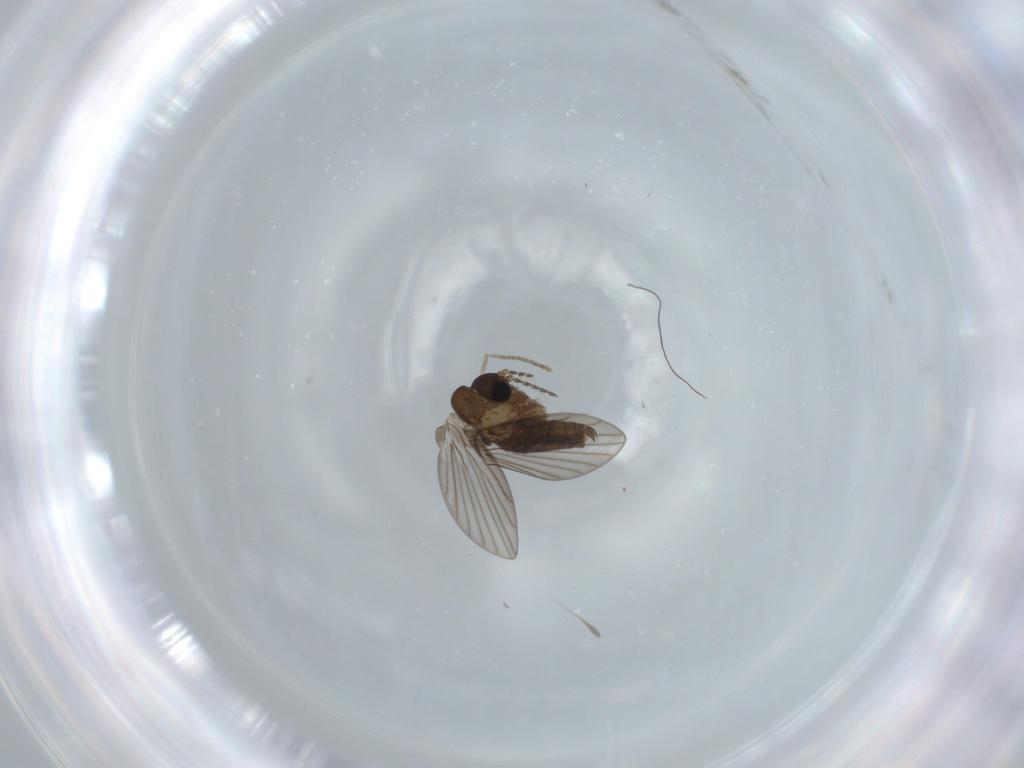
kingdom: Animalia
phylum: Arthropoda
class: Insecta
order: Diptera
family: Psychodidae
